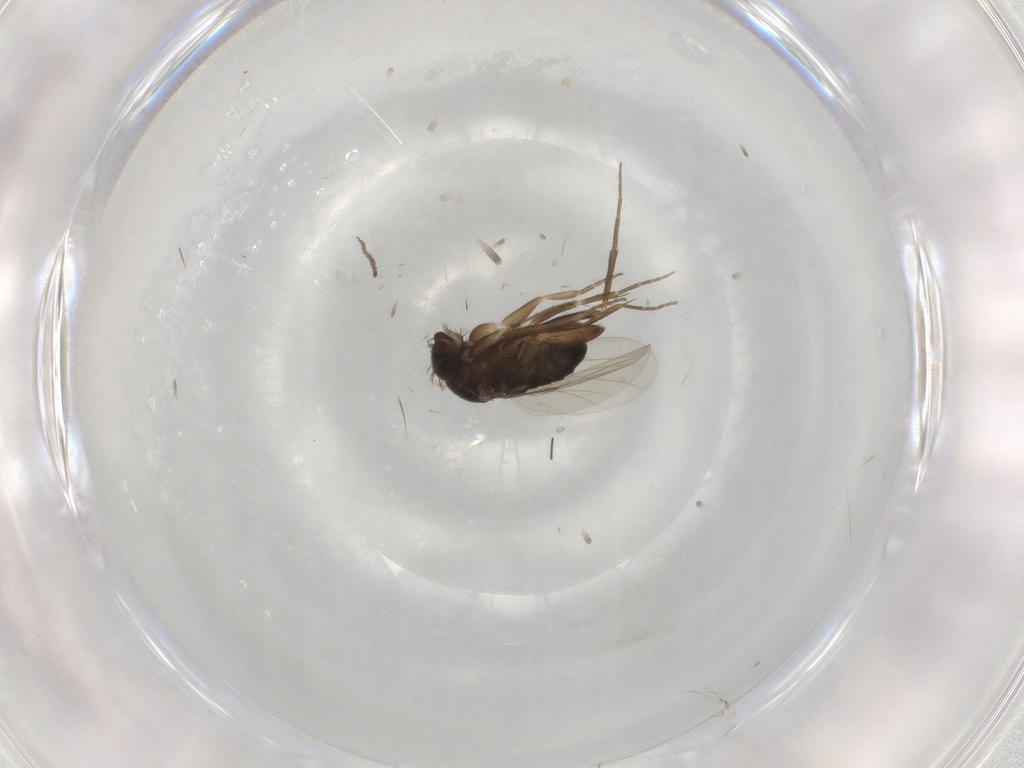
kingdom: Animalia
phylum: Arthropoda
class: Insecta
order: Diptera
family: Phoridae
